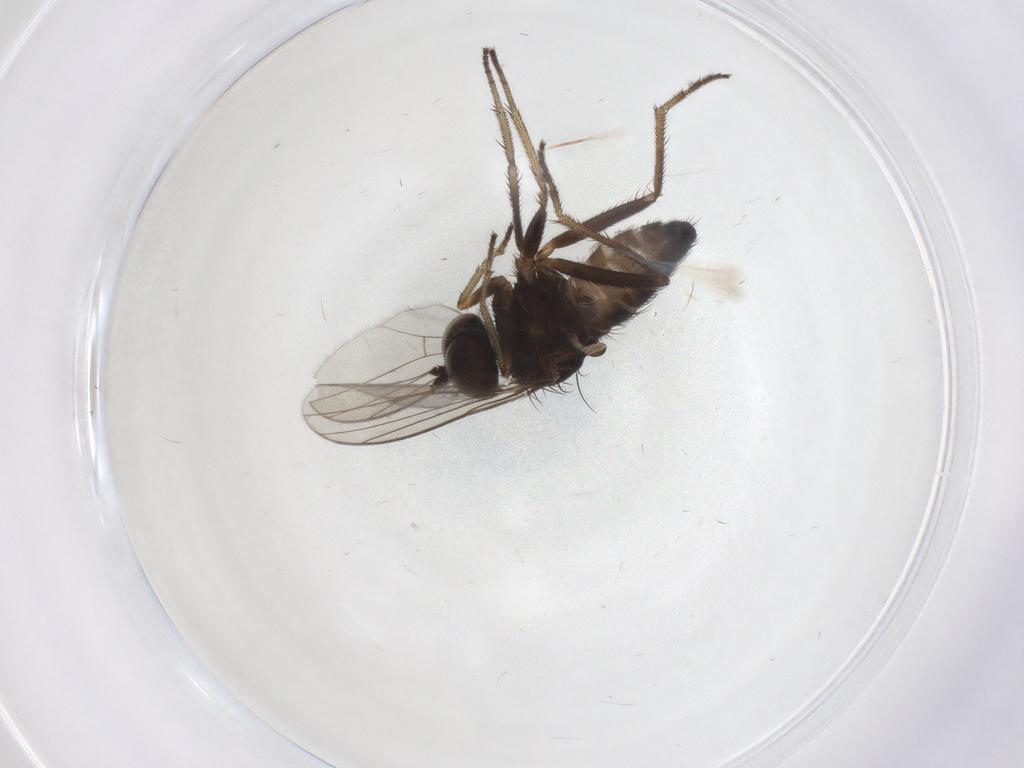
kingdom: Animalia
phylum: Arthropoda
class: Insecta
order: Diptera
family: Dolichopodidae
